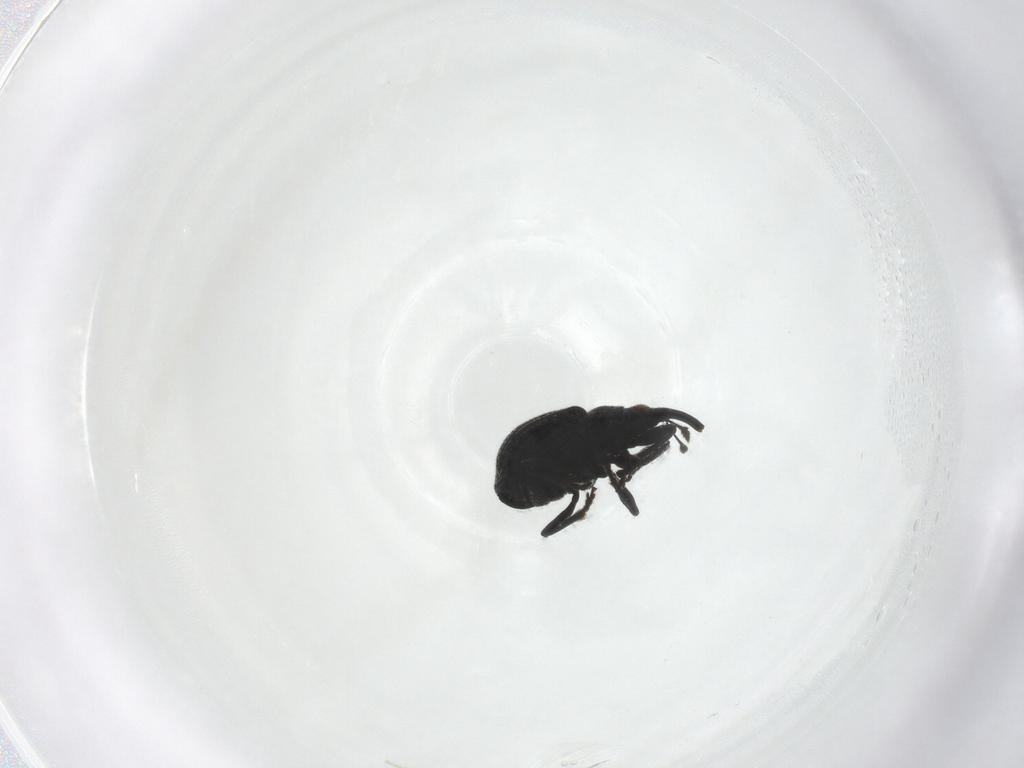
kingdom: Animalia
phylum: Arthropoda
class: Insecta
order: Coleoptera
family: Brentidae
